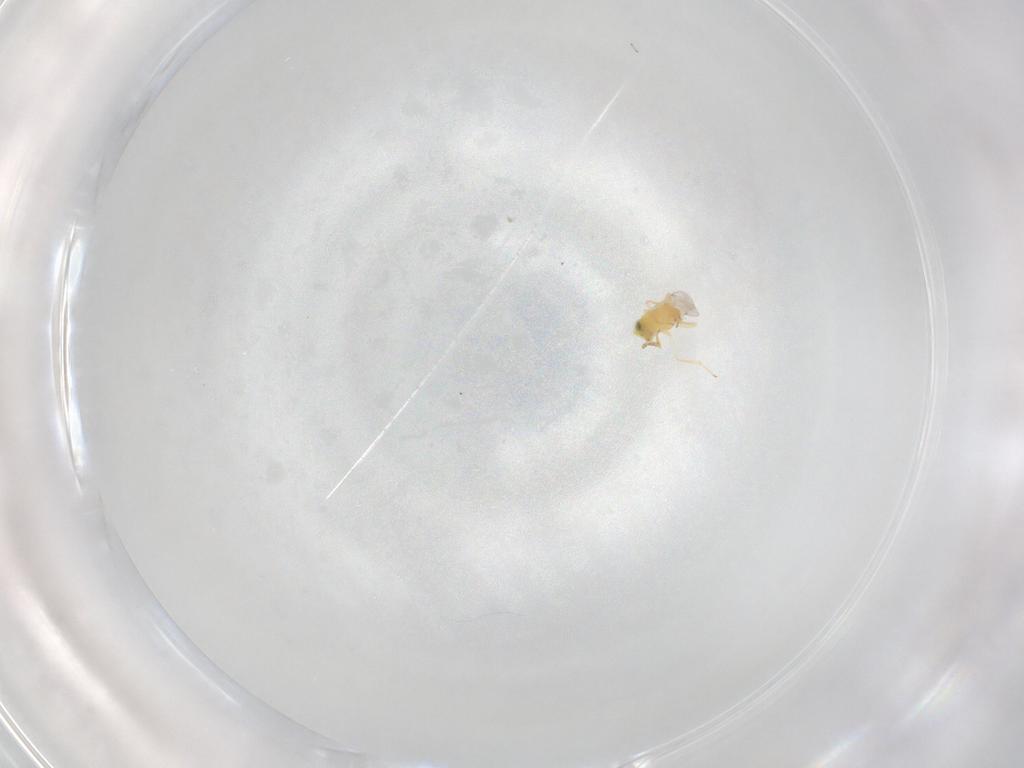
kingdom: Animalia
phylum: Arthropoda
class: Insecta
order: Hymenoptera
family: Encyrtidae
